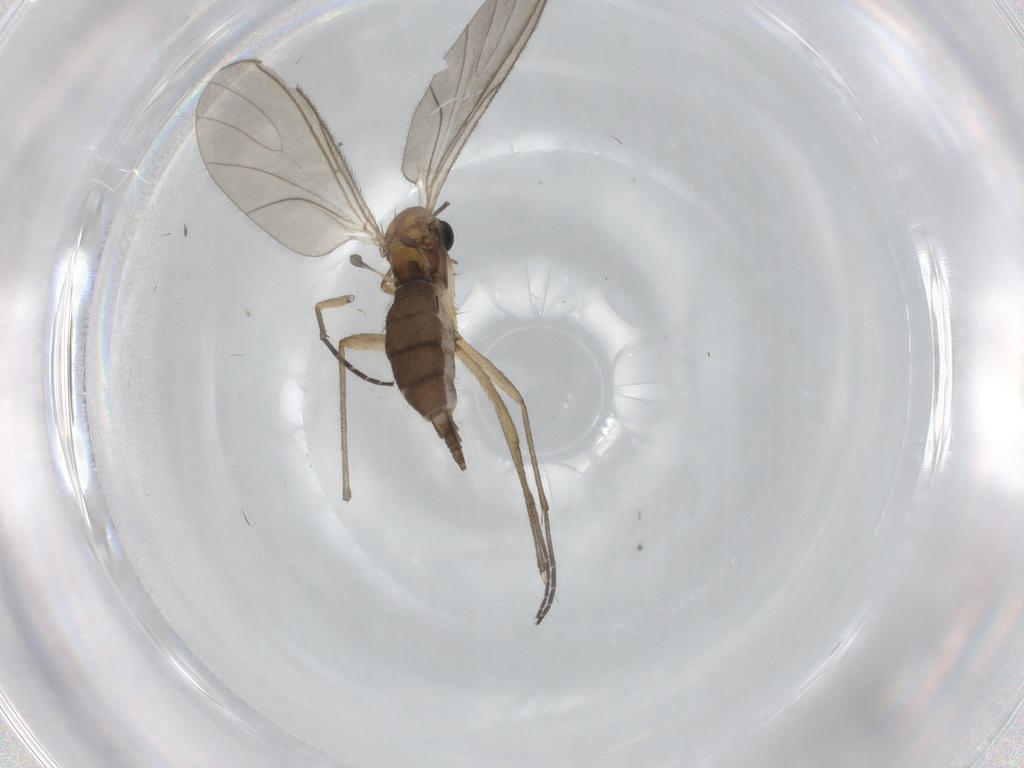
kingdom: Animalia
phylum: Arthropoda
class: Insecta
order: Diptera
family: Sciaridae
